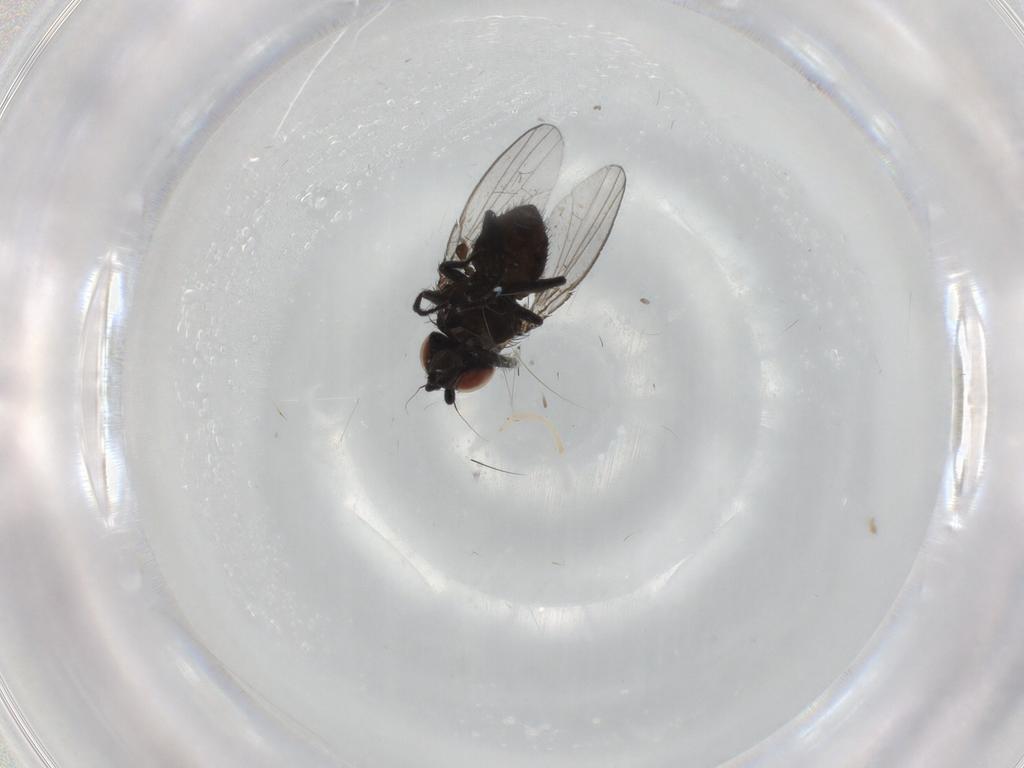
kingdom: Animalia
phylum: Arthropoda
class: Insecta
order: Diptera
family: Milichiidae
